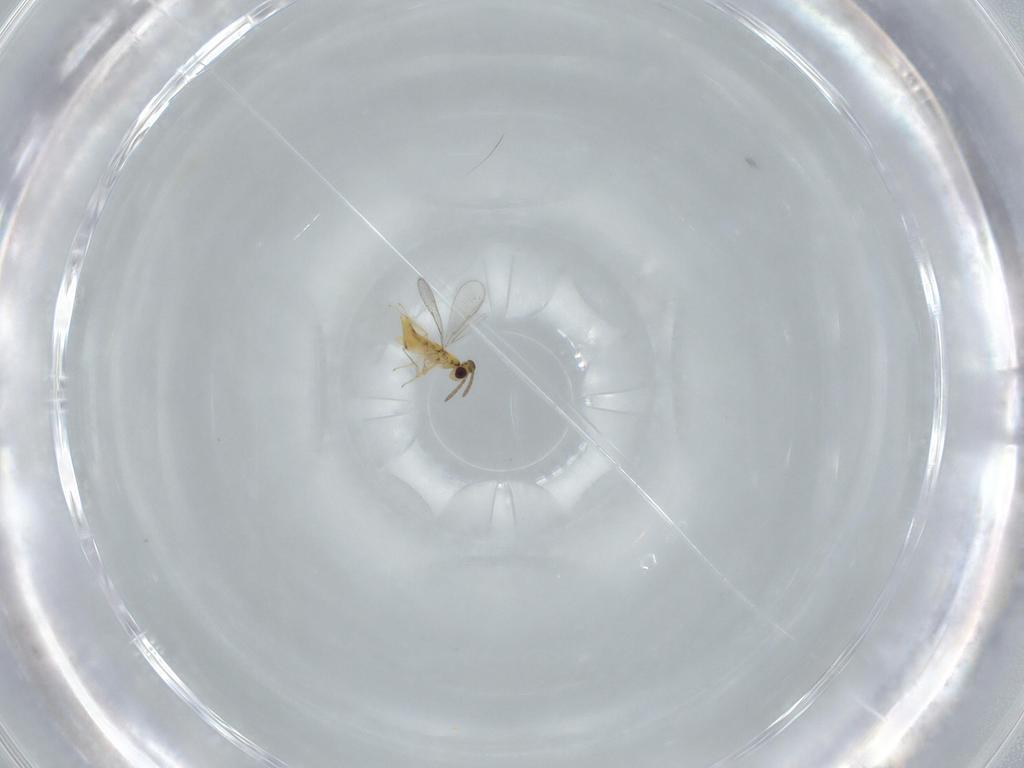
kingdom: Animalia
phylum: Arthropoda
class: Insecta
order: Hymenoptera
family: Aphelinidae
